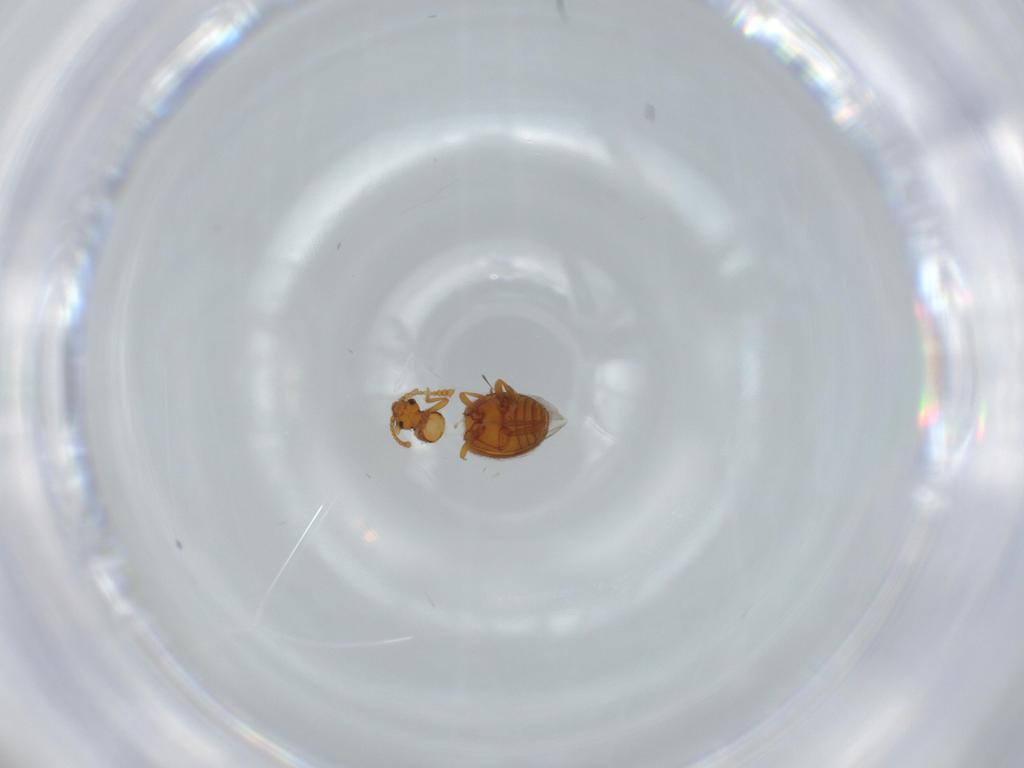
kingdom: Animalia
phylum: Arthropoda
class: Insecta
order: Coleoptera
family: Aderidae
